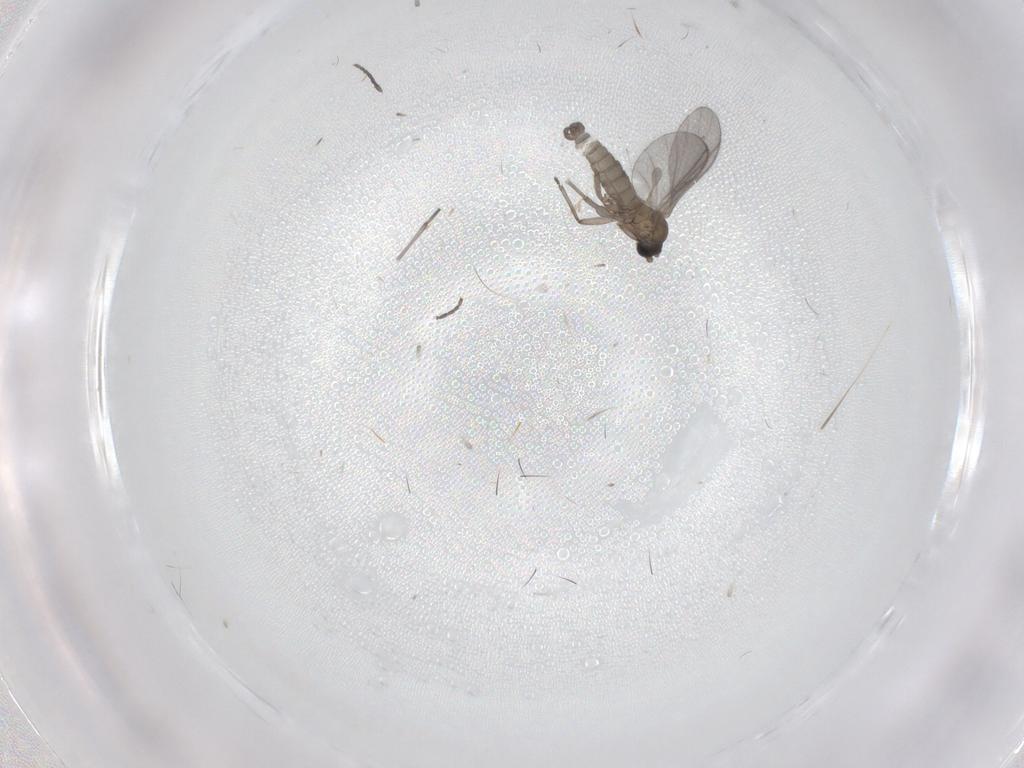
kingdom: Animalia
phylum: Arthropoda
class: Insecta
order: Diptera
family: Sciaridae
